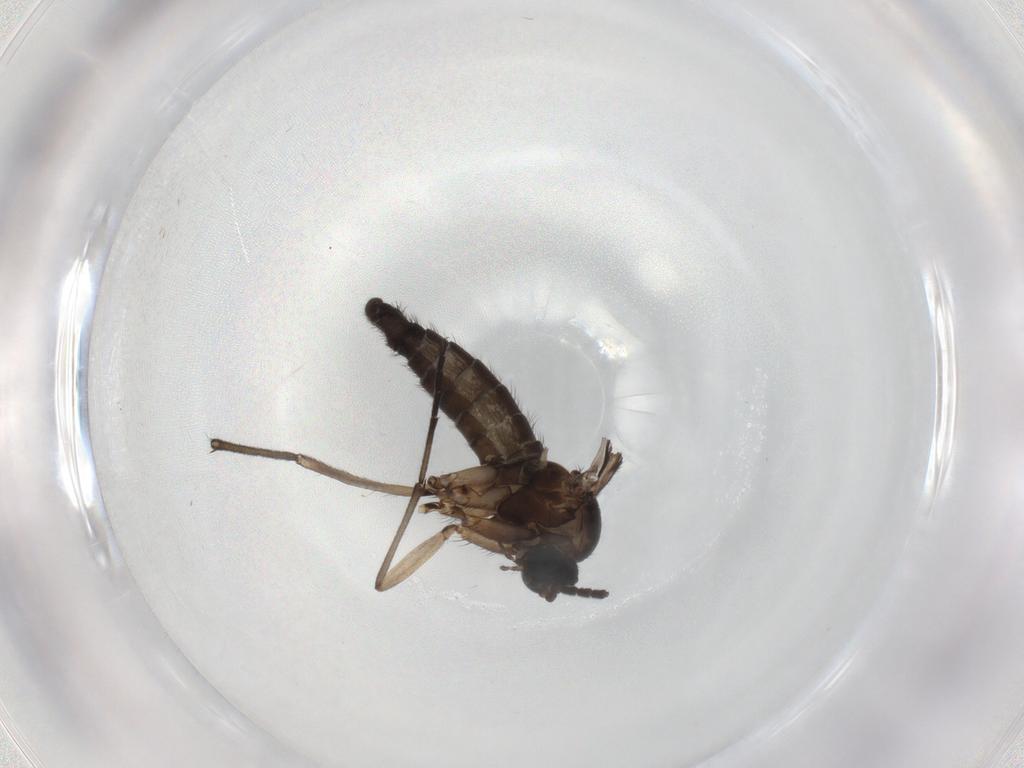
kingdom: Animalia
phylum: Arthropoda
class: Insecta
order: Diptera
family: Sciaridae
